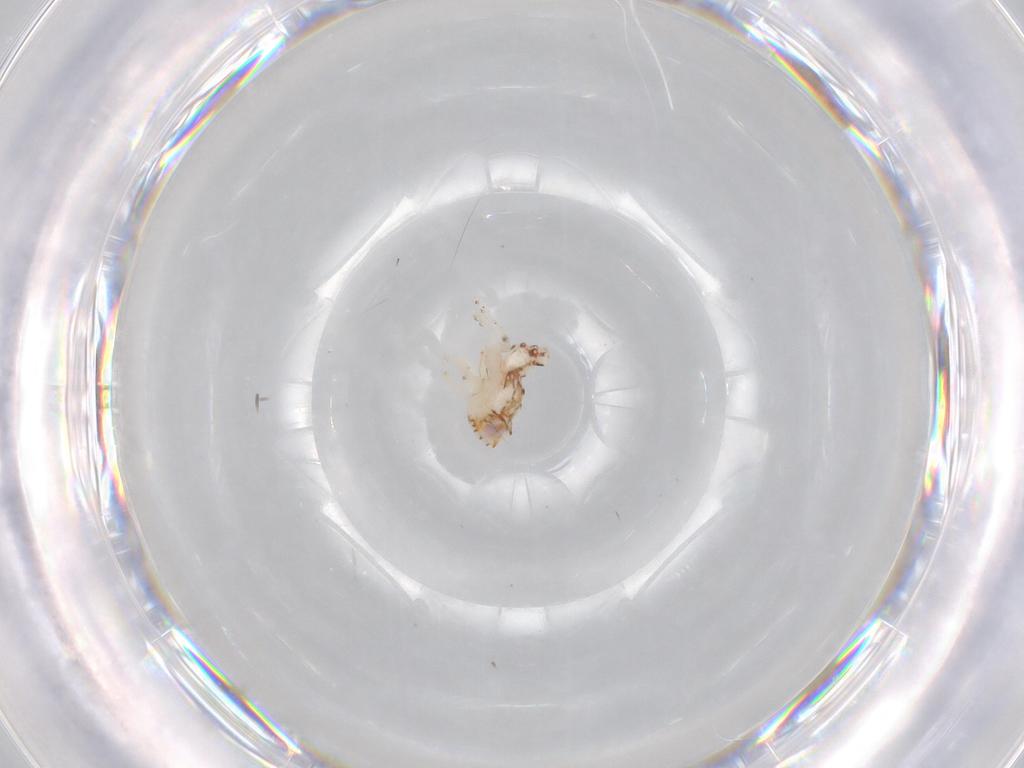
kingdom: Animalia
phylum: Arthropoda
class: Insecta
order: Hemiptera
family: Nogodinidae
